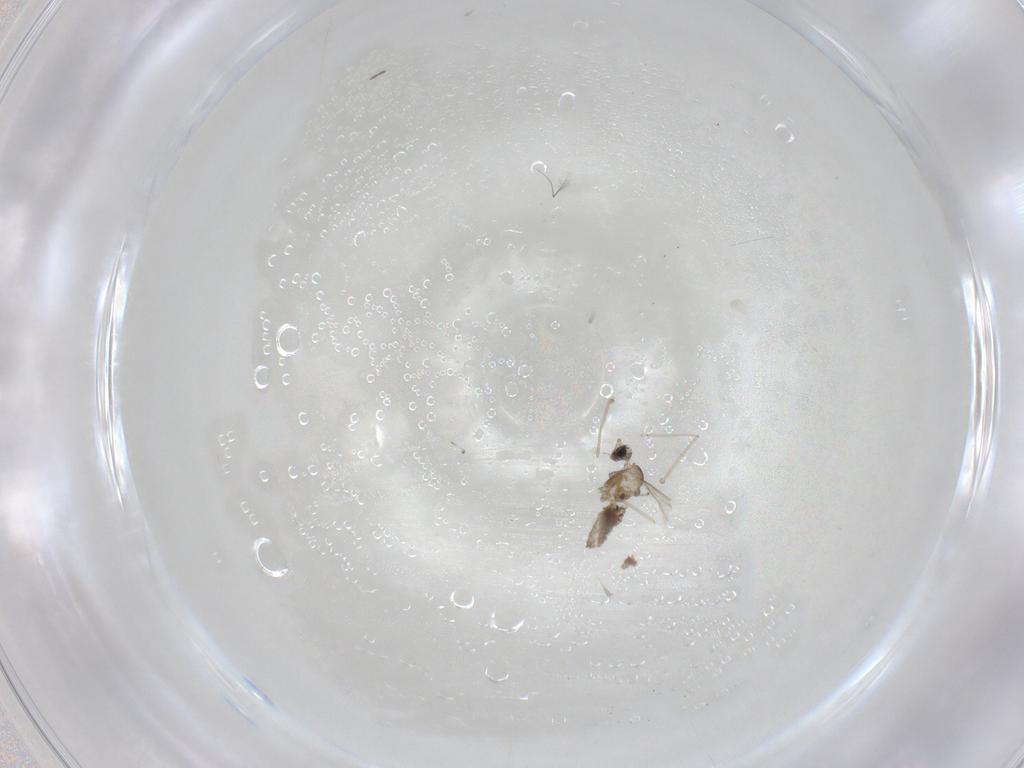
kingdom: Animalia
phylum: Arthropoda
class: Insecta
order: Diptera
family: Cecidomyiidae
